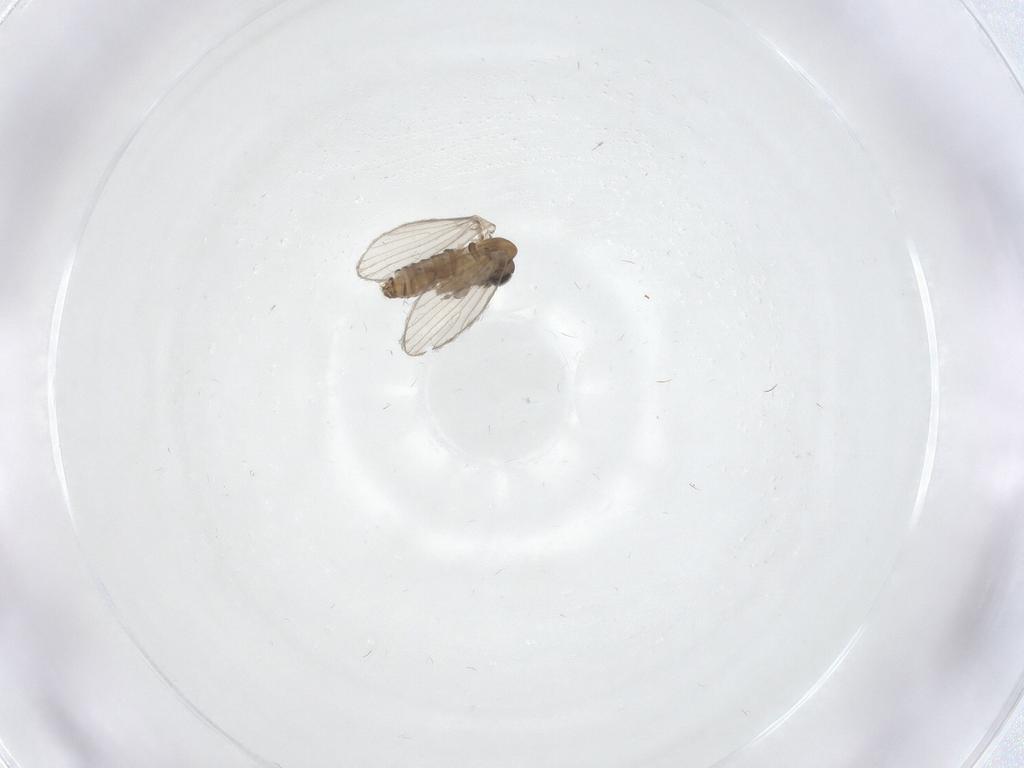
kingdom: Animalia
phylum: Arthropoda
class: Insecta
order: Diptera
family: Psychodidae
